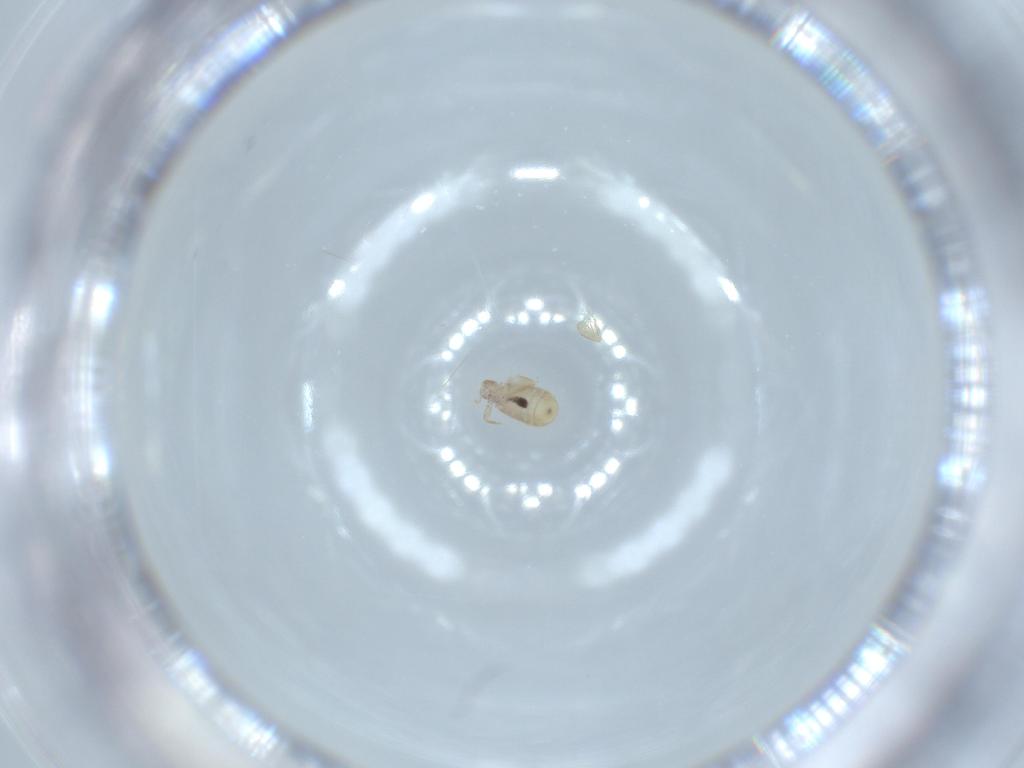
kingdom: Animalia
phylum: Arthropoda
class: Insecta
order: Psocodea
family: Liposcelididae
